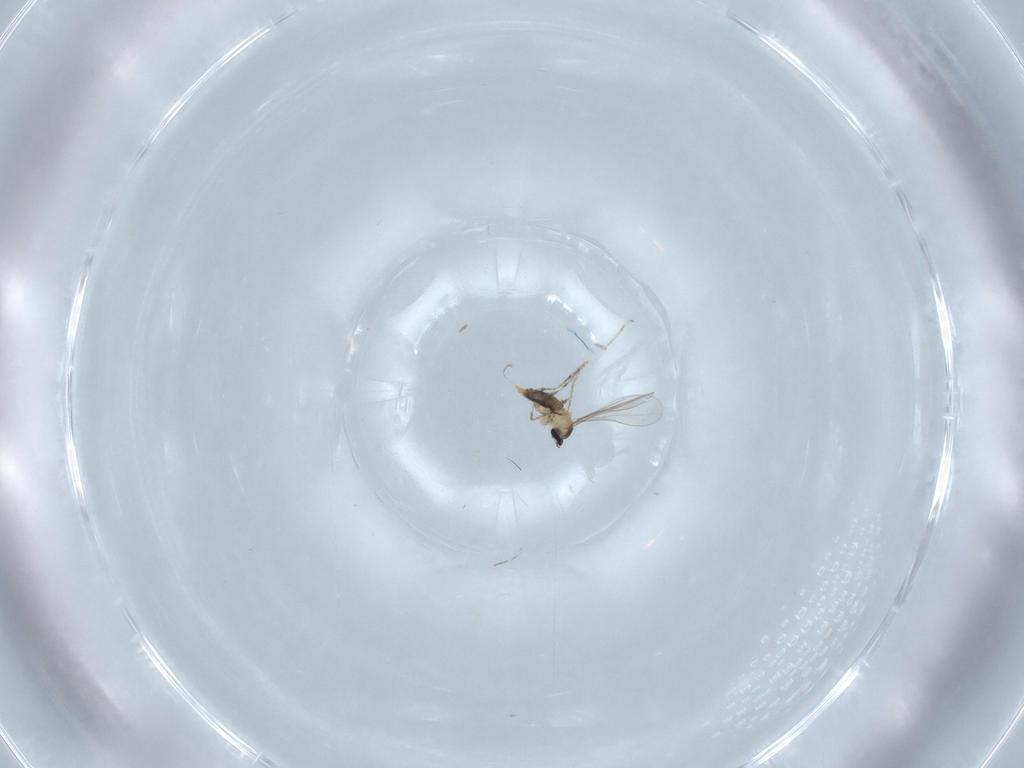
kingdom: Animalia
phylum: Arthropoda
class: Insecta
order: Diptera
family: Cecidomyiidae
